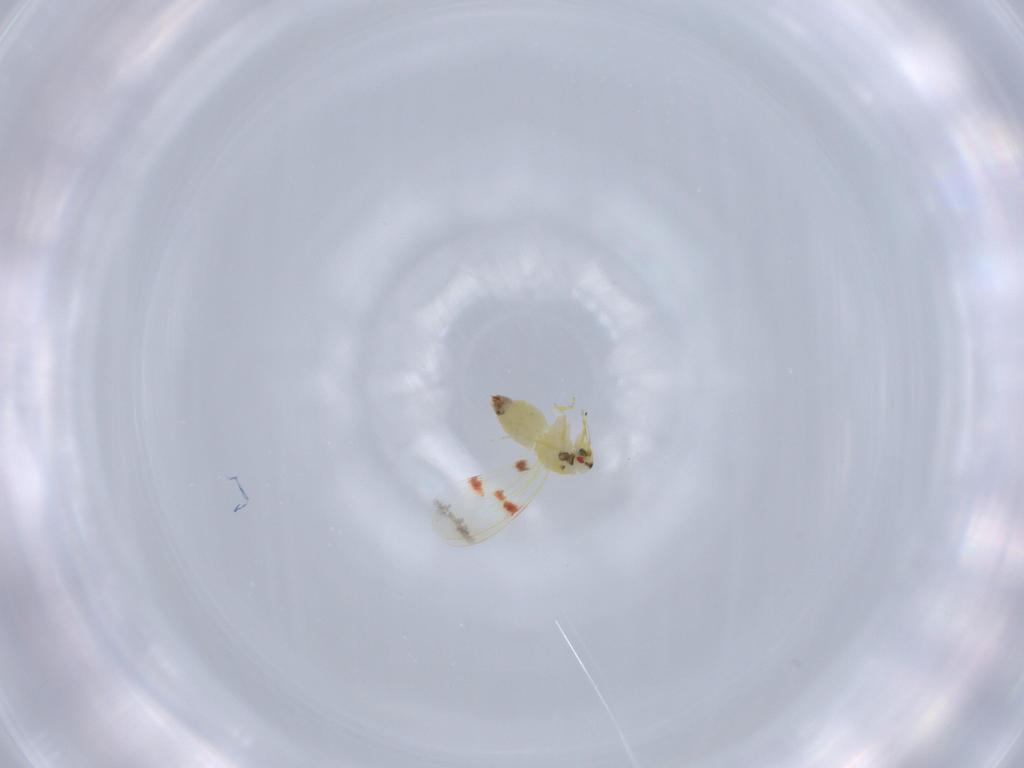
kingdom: Animalia
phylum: Arthropoda
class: Insecta
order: Hemiptera
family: Aleyrodidae
